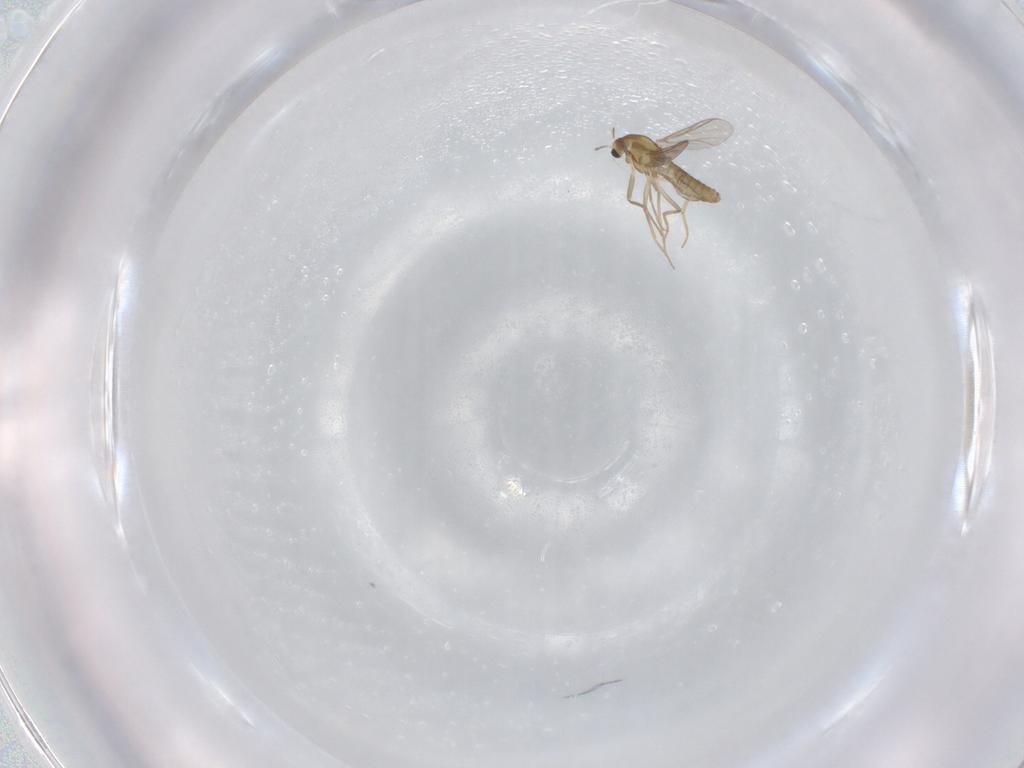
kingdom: Animalia
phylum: Arthropoda
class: Insecta
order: Diptera
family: Chironomidae
